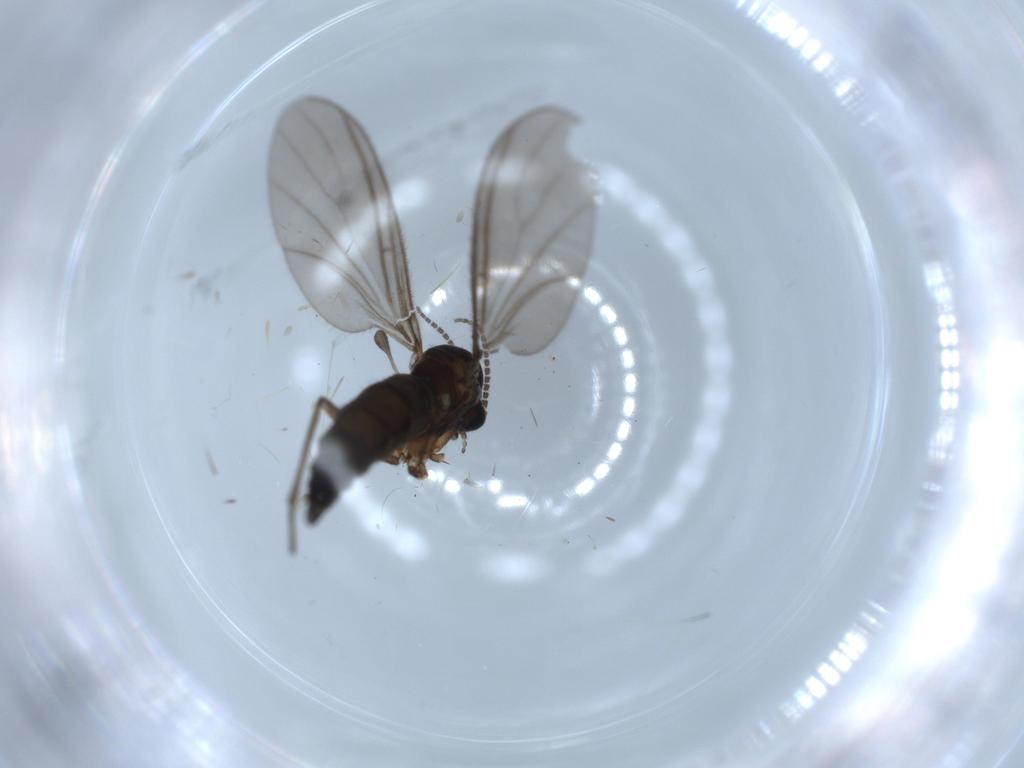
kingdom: Animalia
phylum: Arthropoda
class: Insecta
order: Diptera
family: Sciaridae
